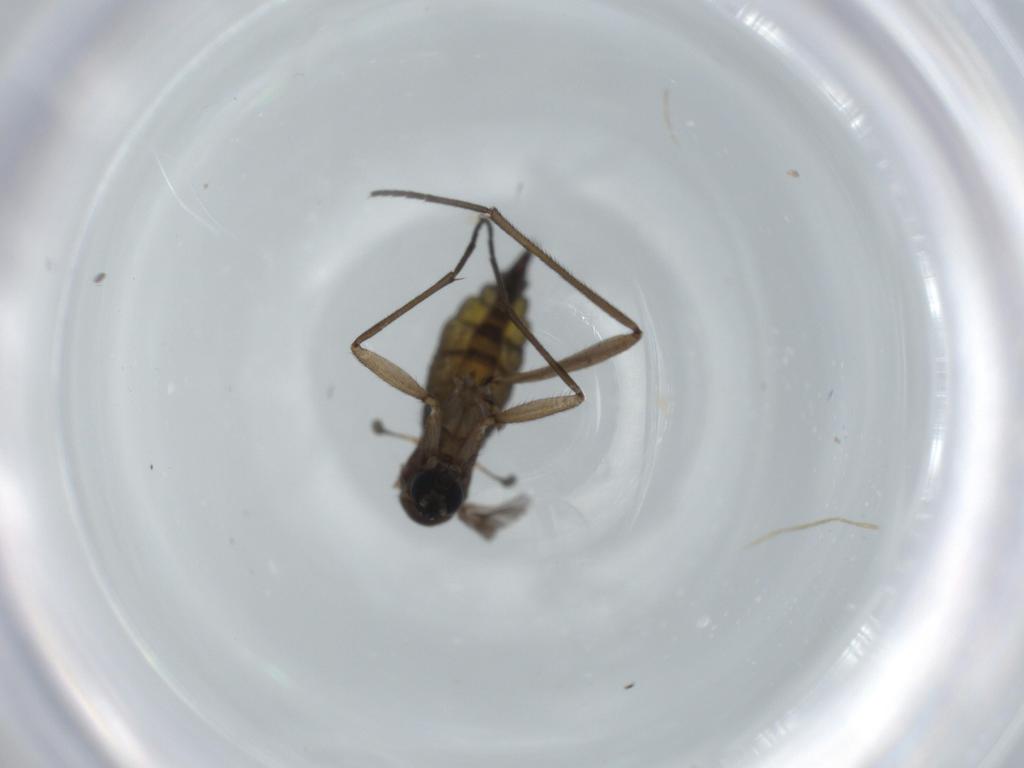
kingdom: Animalia
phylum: Arthropoda
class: Insecta
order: Diptera
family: Sciaridae
